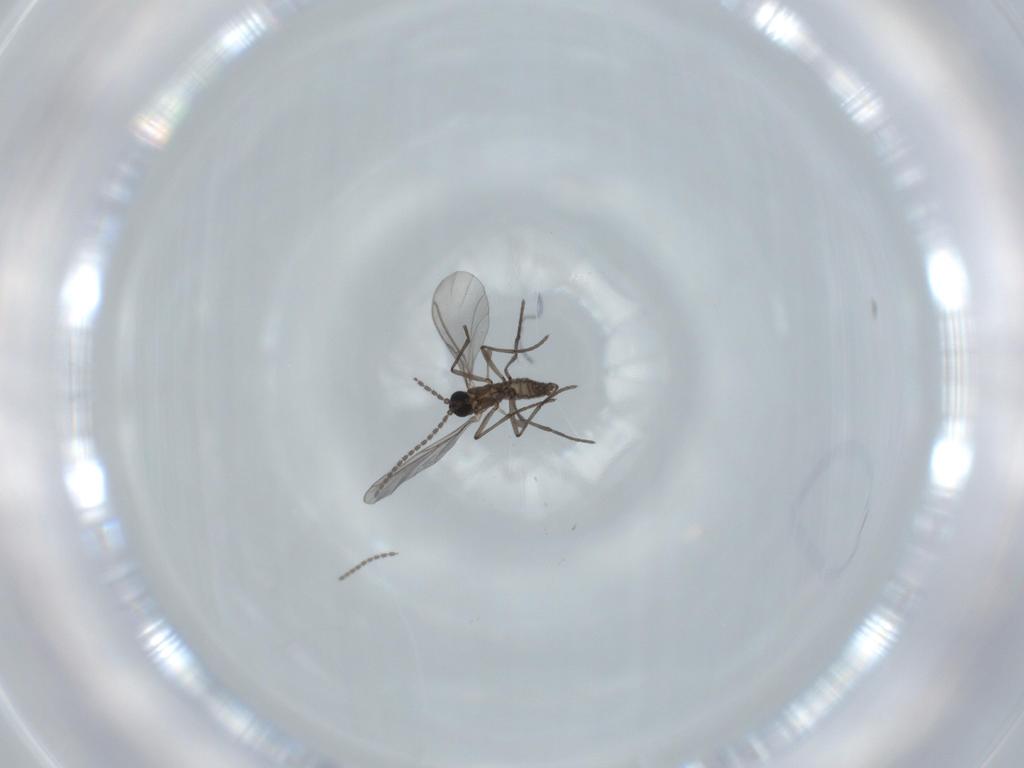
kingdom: Animalia
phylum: Arthropoda
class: Insecta
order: Diptera
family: Sciaridae
